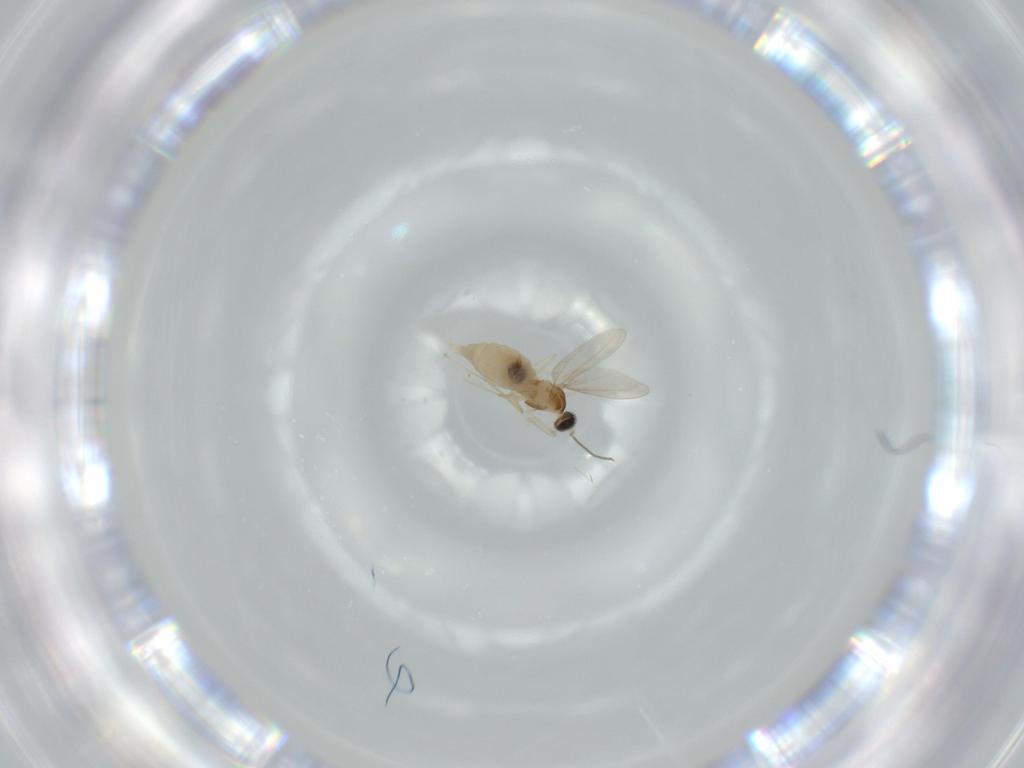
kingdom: Animalia
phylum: Arthropoda
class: Insecta
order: Diptera
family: Cecidomyiidae
